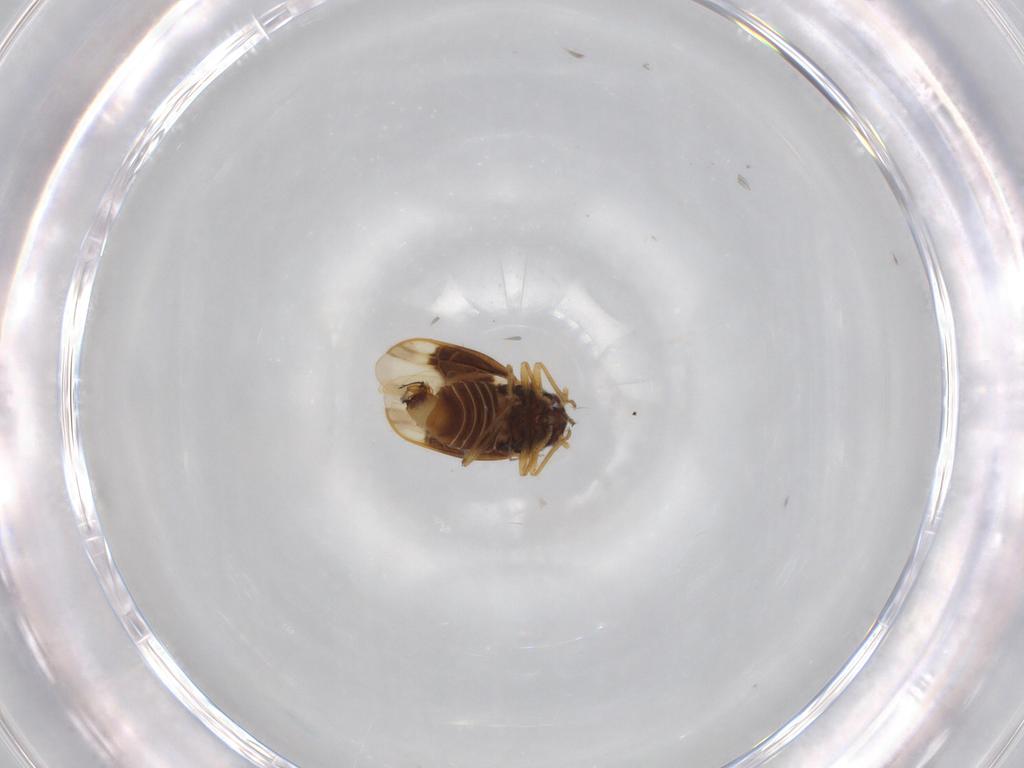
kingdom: Animalia
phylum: Arthropoda
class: Insecta
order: Hemiptera
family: Schizopteridae
